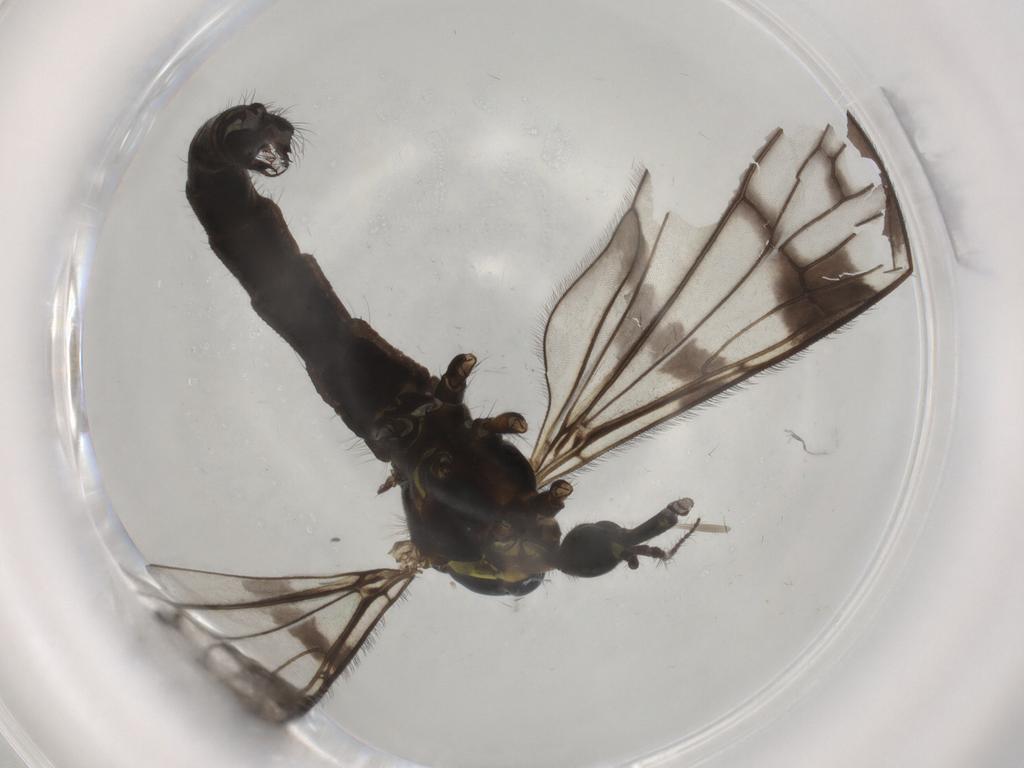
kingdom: Animalia
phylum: Arthropoda
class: Insecta
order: Diptera
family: Limoniidae
